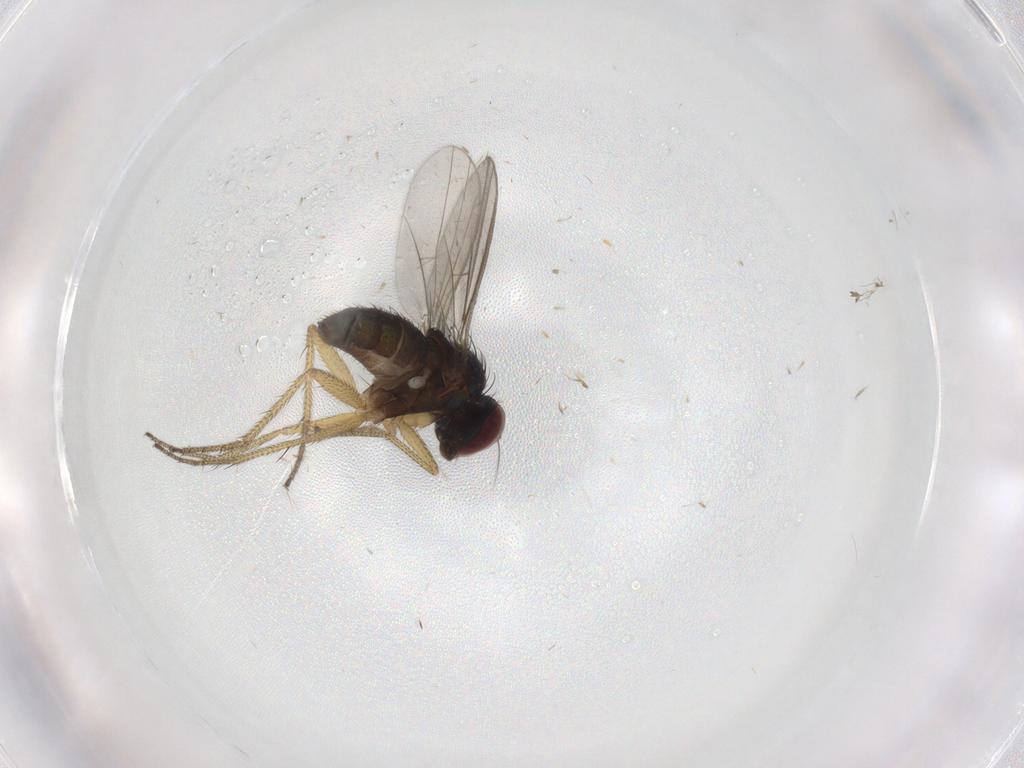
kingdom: Animalia
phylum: Arthropoda
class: Insecta
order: Diptera
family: Sciaridae
